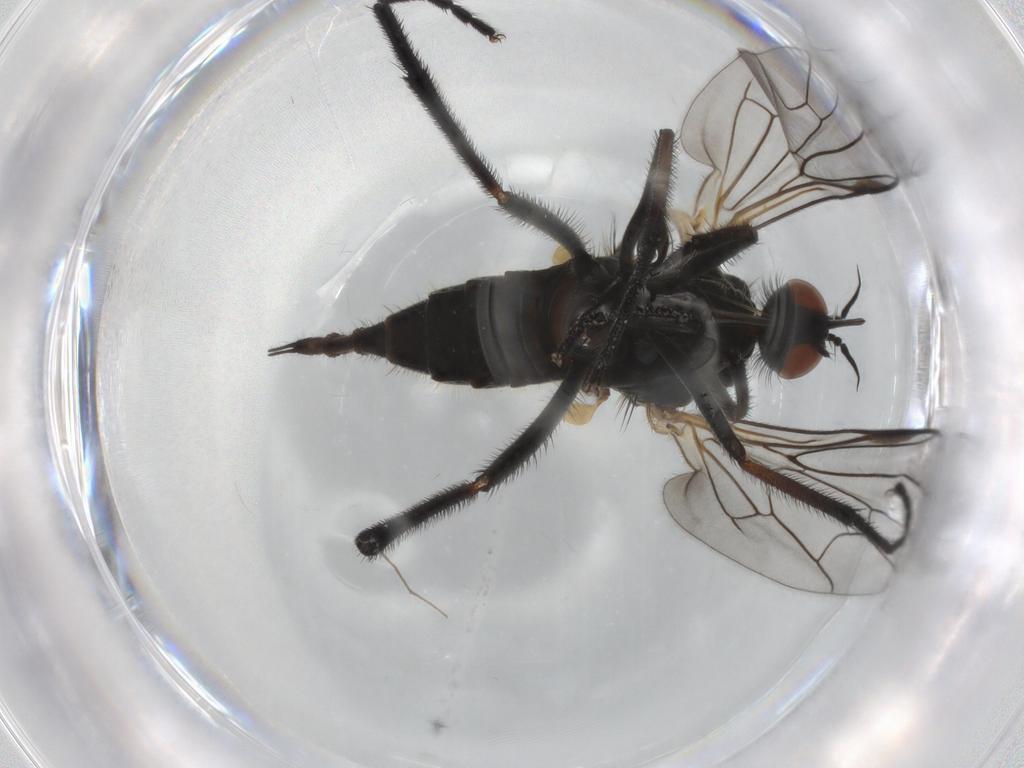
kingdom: Animalia
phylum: Arthropoda
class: Insecta
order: Diptera
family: Empididae
